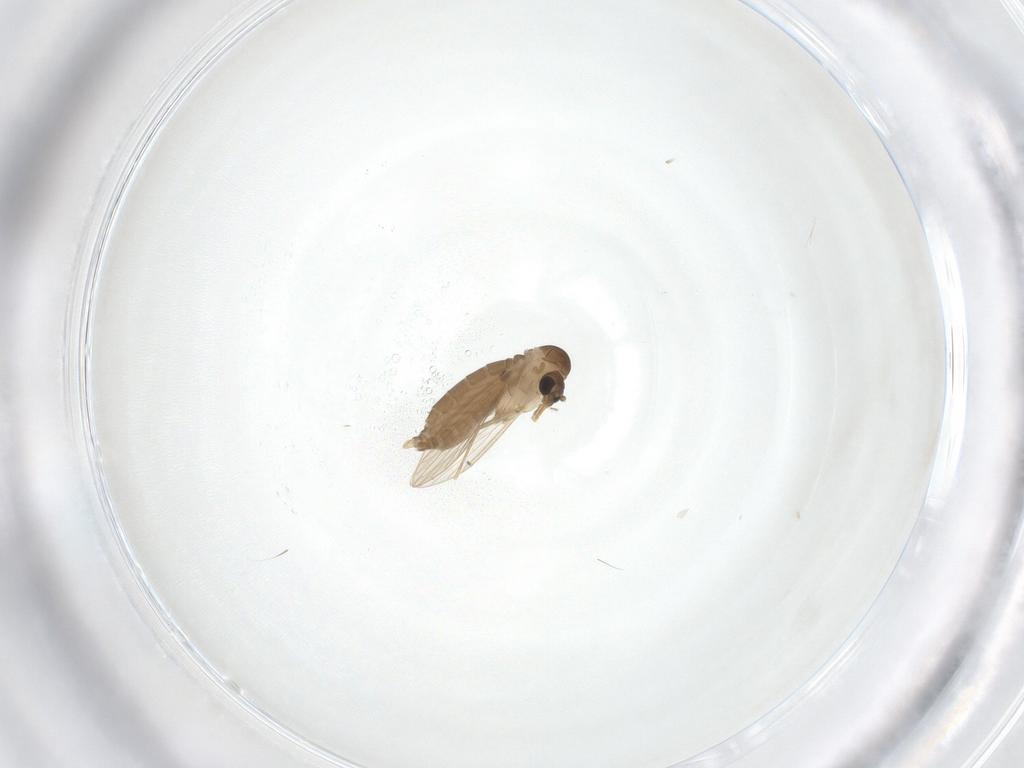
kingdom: Animalia
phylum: Arthropoda
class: Insecta
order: Diptera
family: Psychodidae
